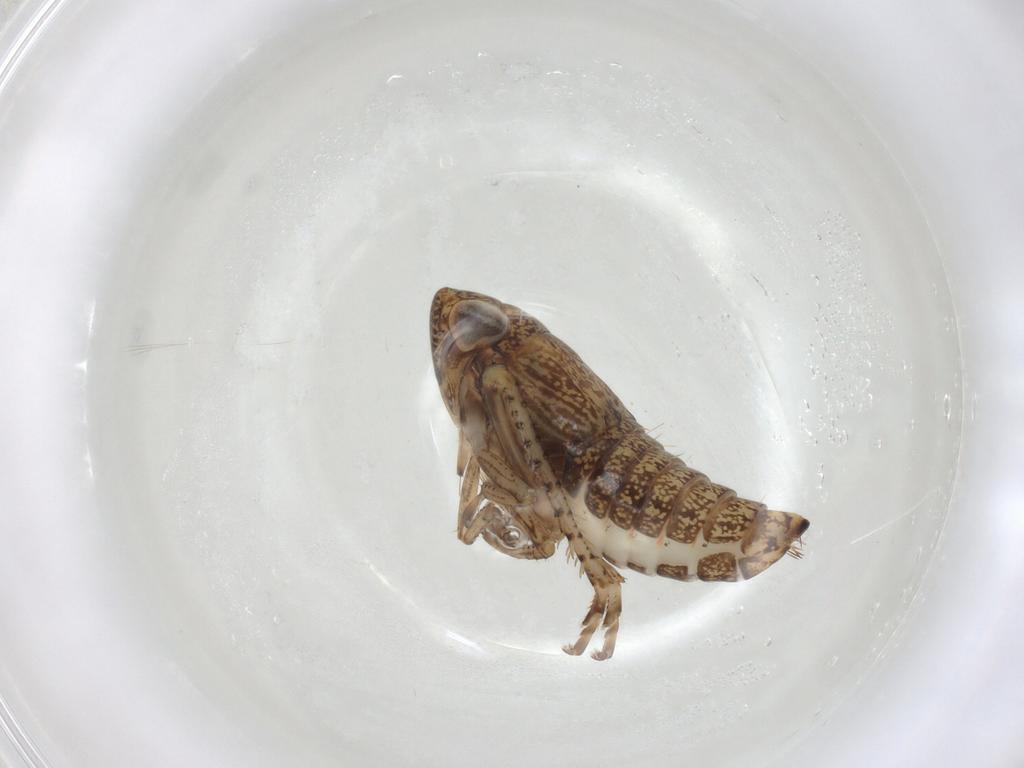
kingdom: Animalia
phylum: Arthropoda
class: Insecta
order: Hemiptera
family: Cicadellidae
